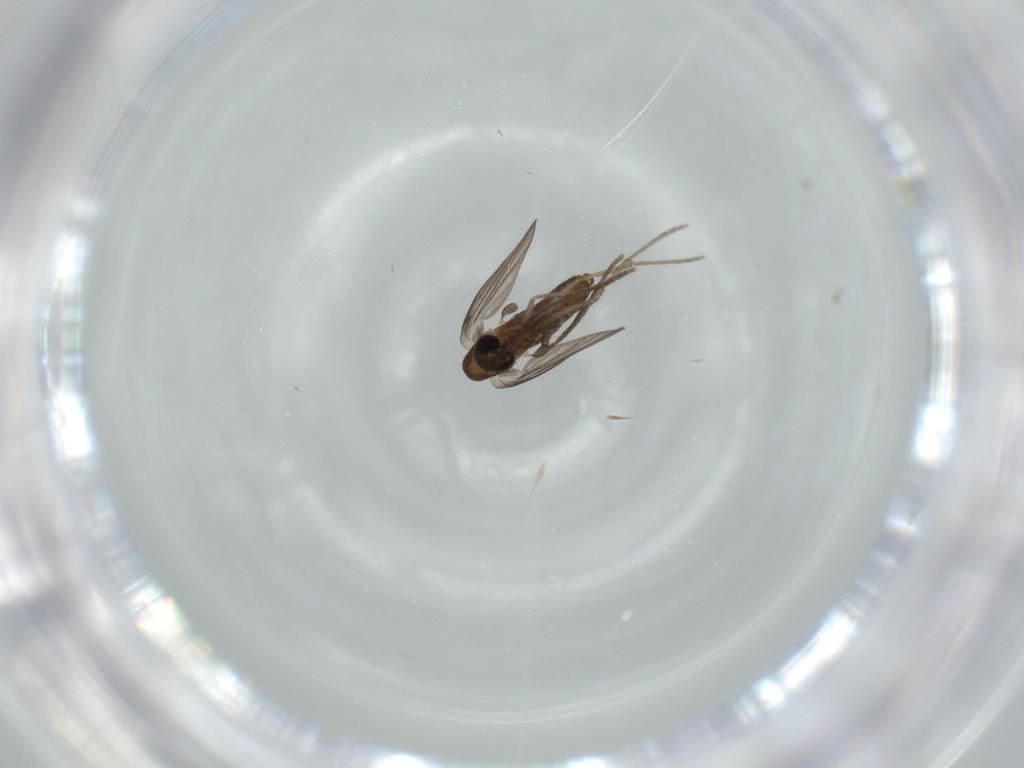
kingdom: Animalia
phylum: Arthropoda
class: Insecta
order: Diptera
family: Psychodidae
